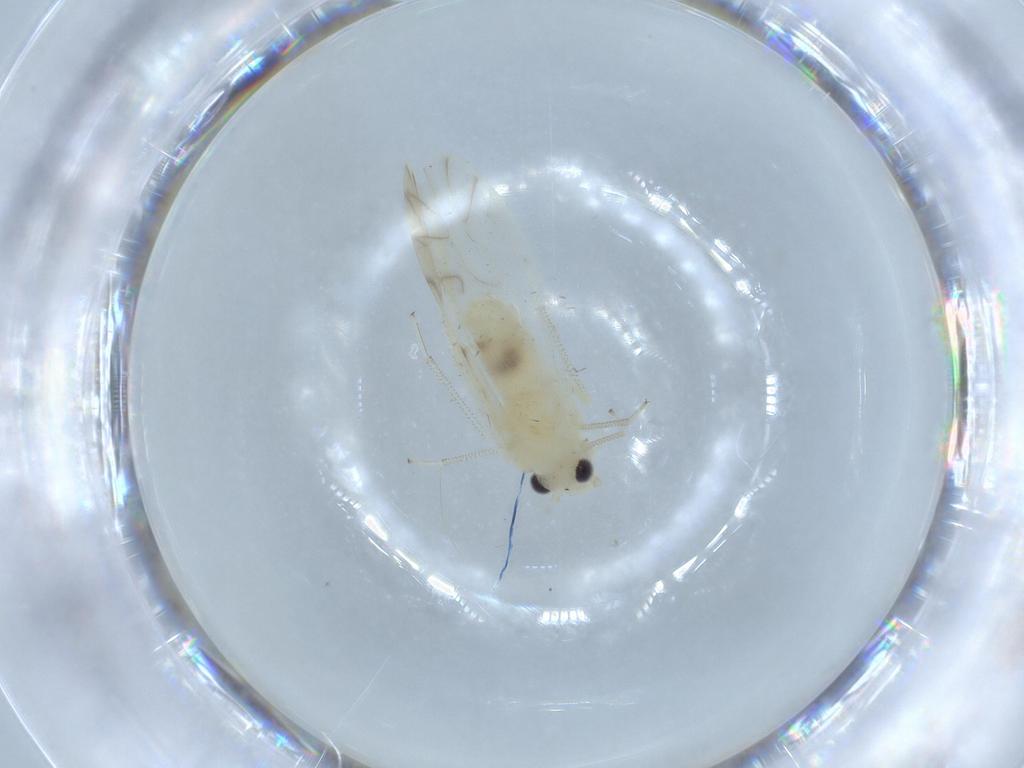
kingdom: Animalia
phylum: Arthropoda
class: Insecta
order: Psocodea
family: Caeciliusidae
